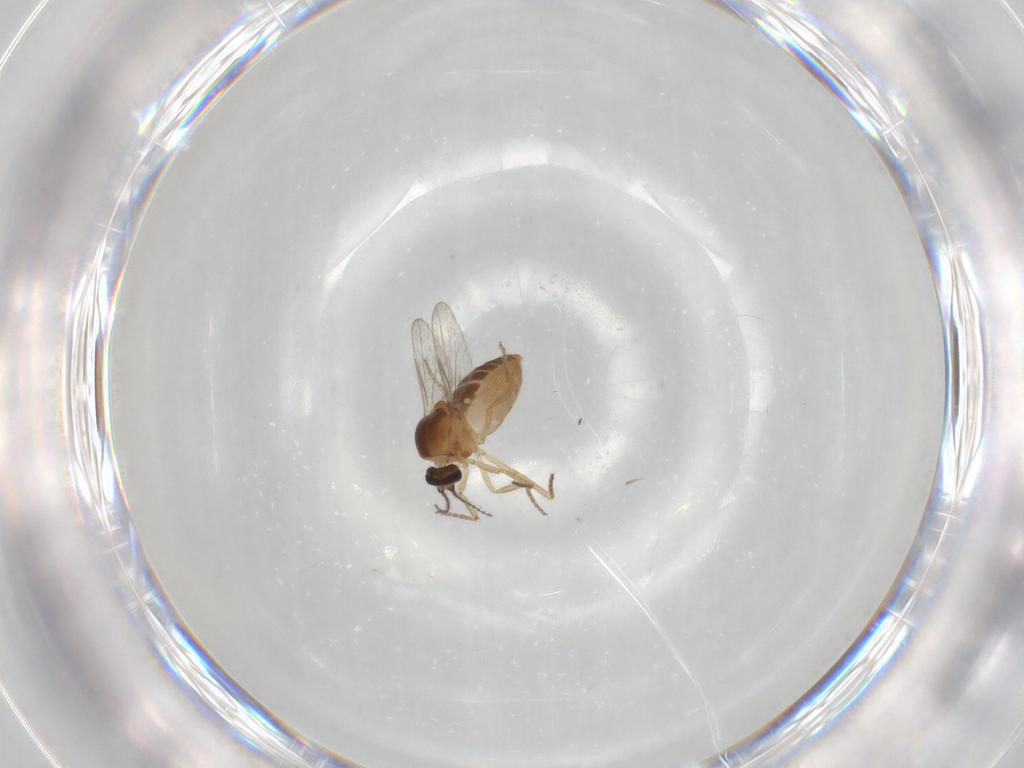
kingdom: Animalia
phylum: Arthropoda
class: Insecta
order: Diptera
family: Ceratopogonidae
